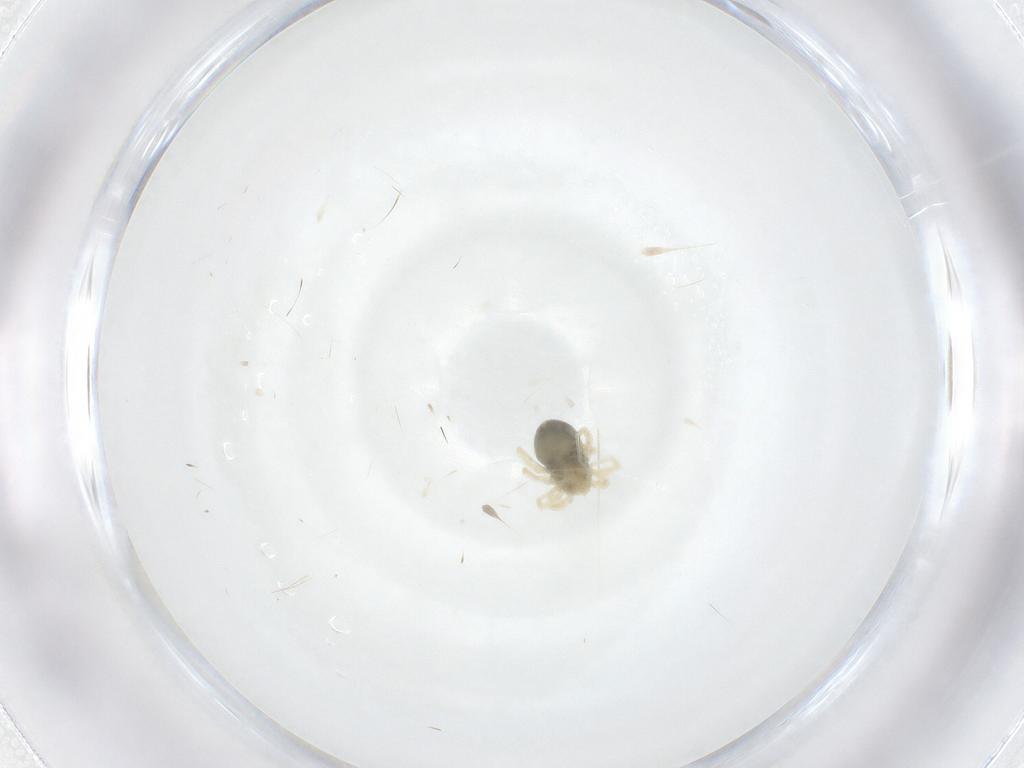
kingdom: Animalia
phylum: Arthropoda
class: Arachnida
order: Trombidiformes
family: Anystidae
